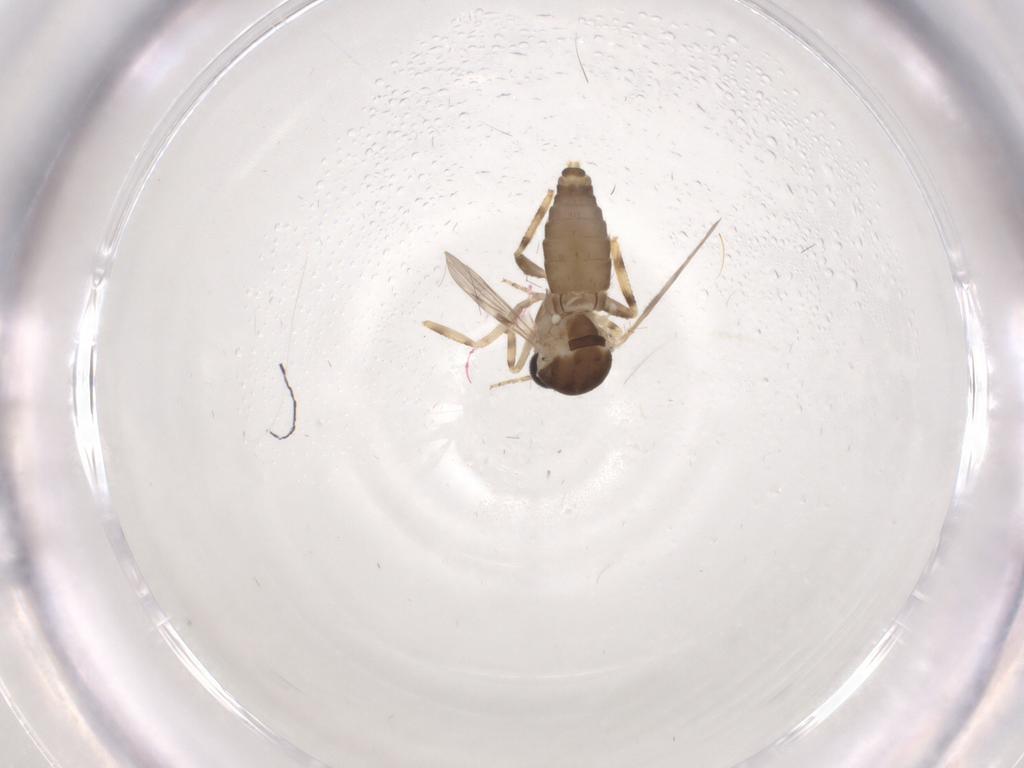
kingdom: Animalia
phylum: Arthropoda
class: Insecta
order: Diptera
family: Ceratopogonidae
